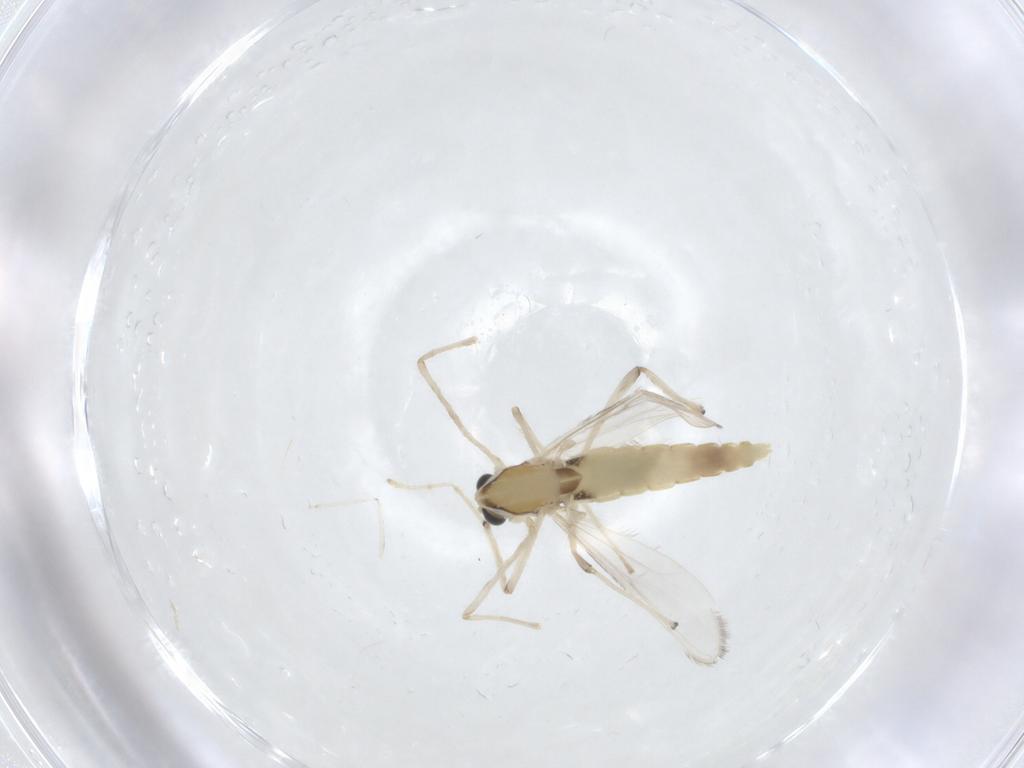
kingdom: Animalia
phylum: Arthropoda
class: Insecta
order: Diptera
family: Chironomidae
